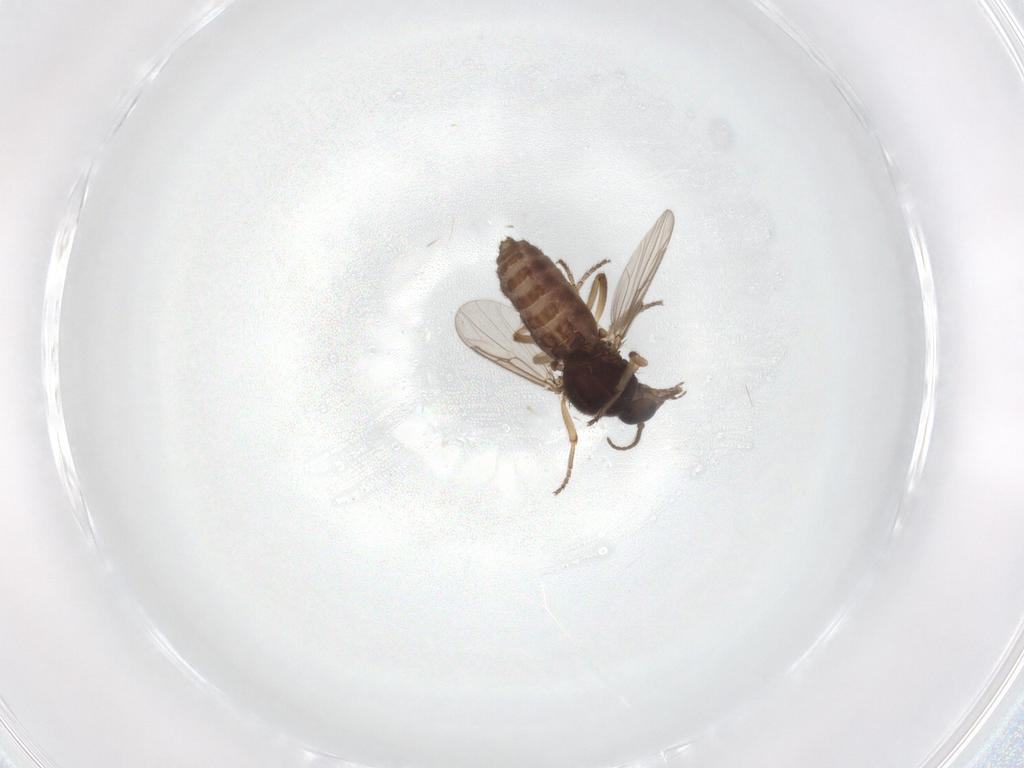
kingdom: Animalia
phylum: Arthropoda
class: Insecta
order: Diptera
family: Ceratopogonidae
